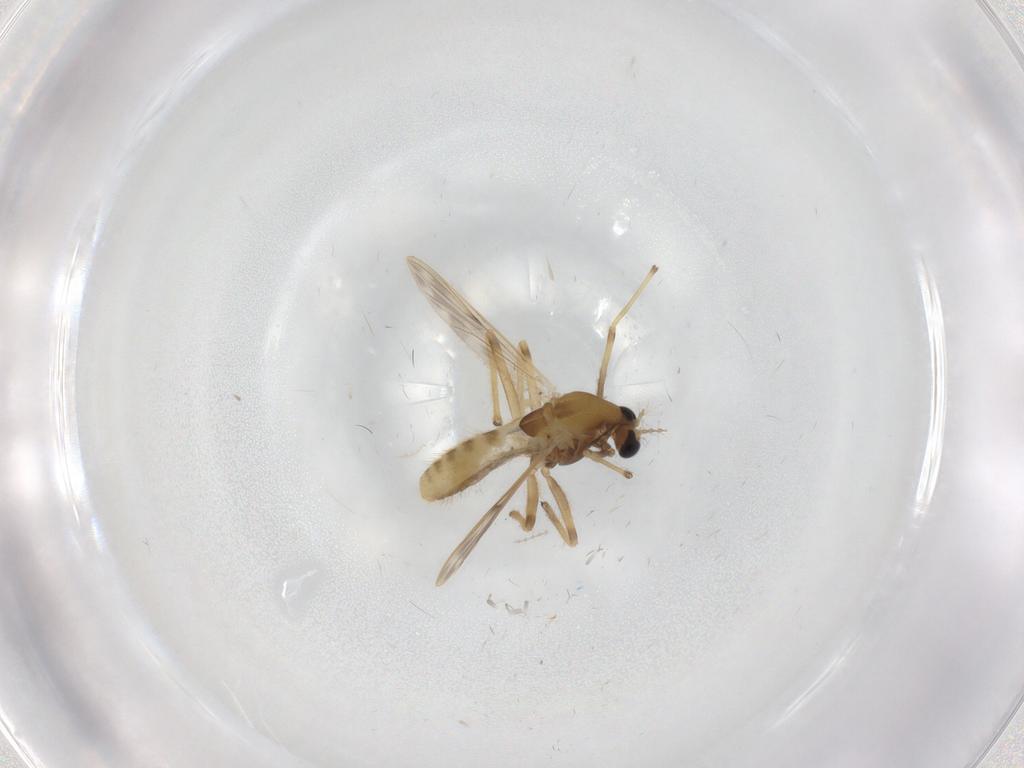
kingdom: Animalia
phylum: Arthropoda
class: Insecta
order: Diptera
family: Chironomidae
